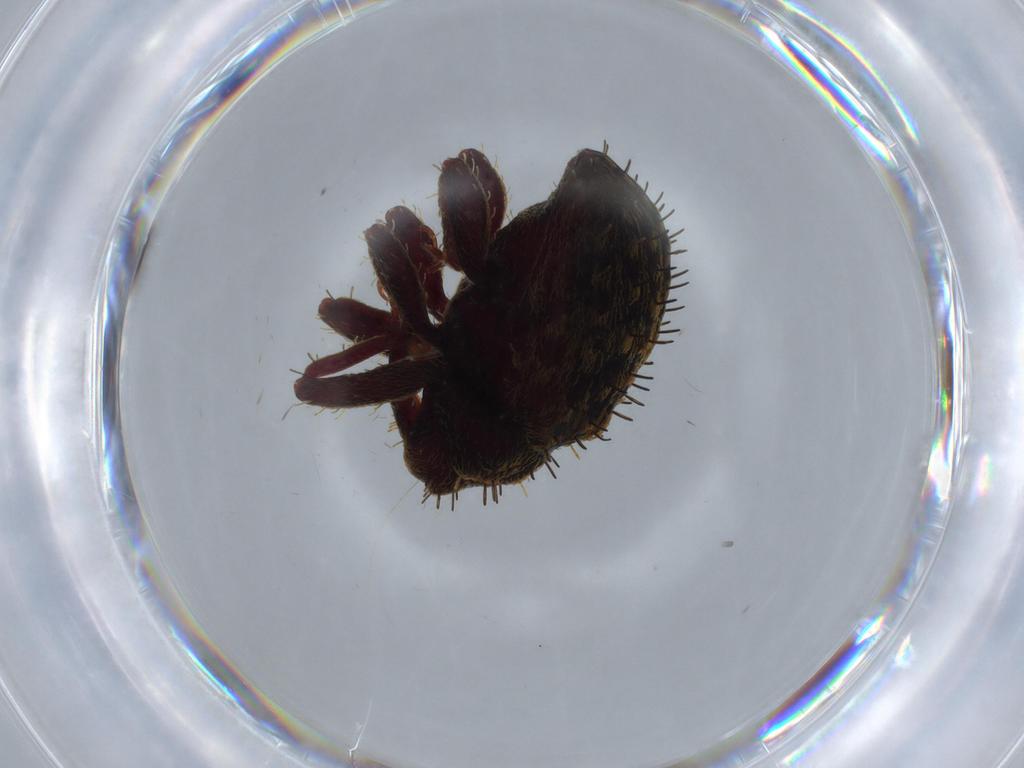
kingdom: Animalia
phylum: Arthropoda
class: Insecta
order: Coleoptera
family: Curculionidae
